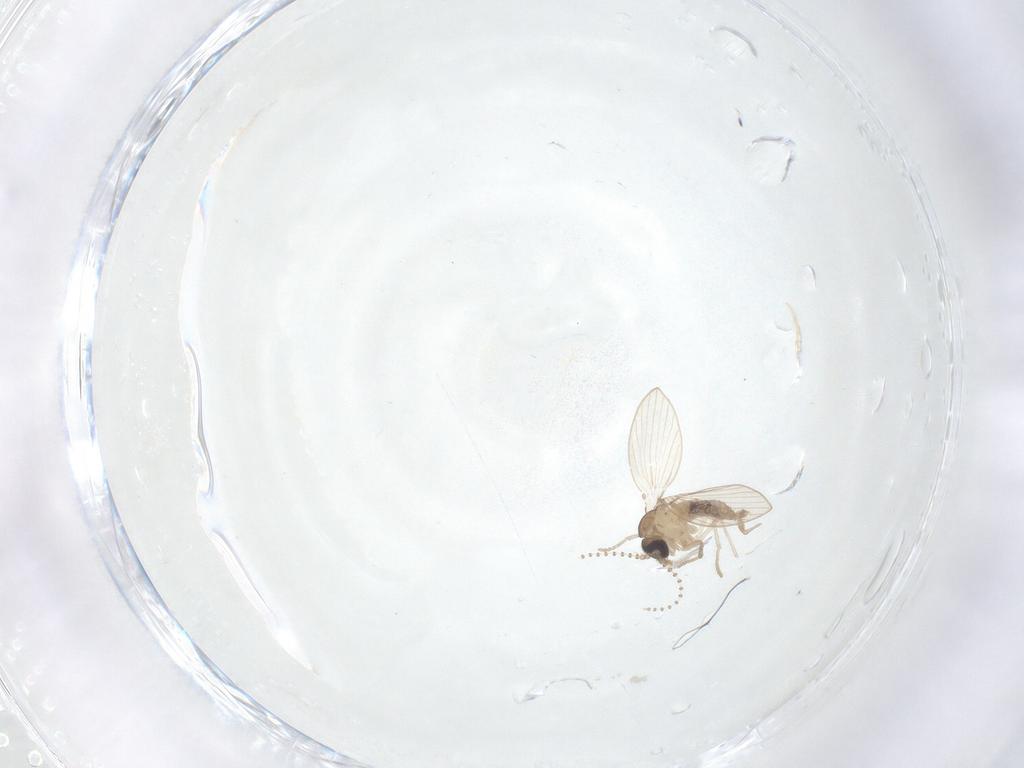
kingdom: Animalia
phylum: Arthropoda
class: Insecta
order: Diptera
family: Psychodidae
